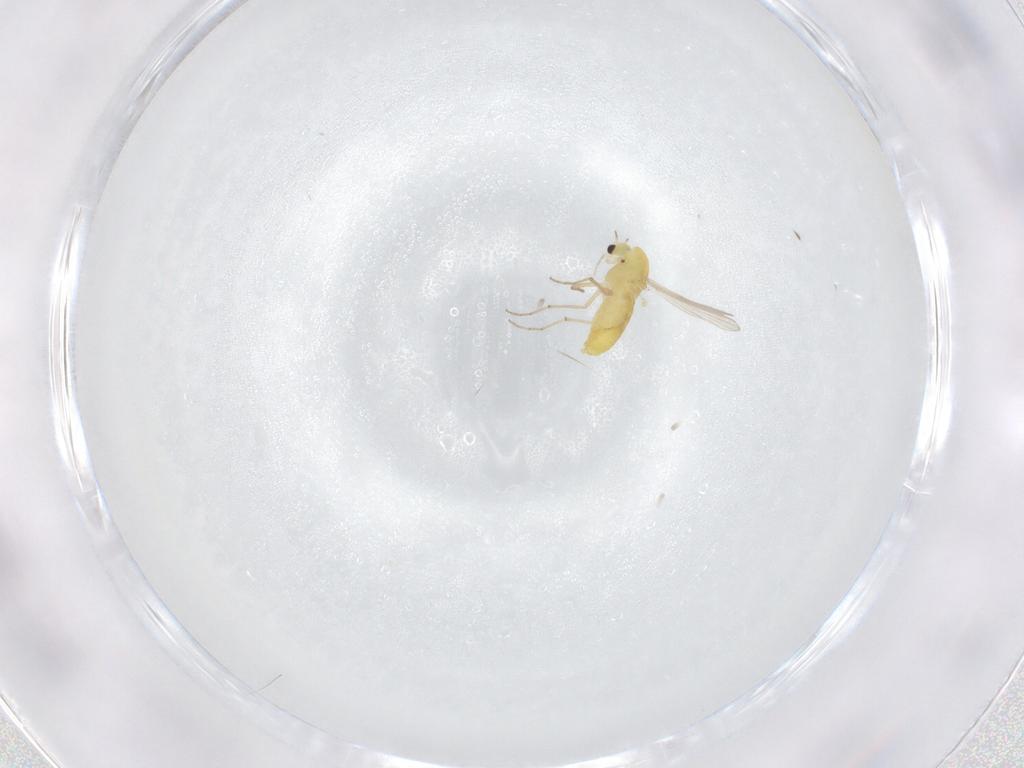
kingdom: Animalia
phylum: Arthropoda
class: Insecta
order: Diptera
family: Chironomidae
